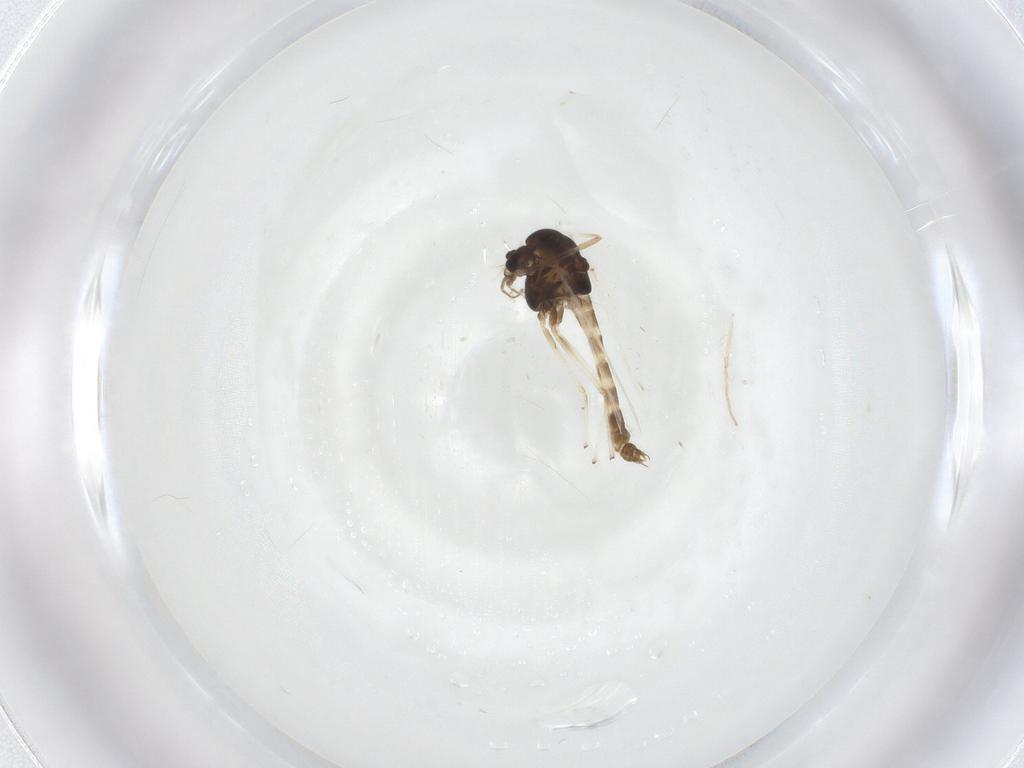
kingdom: Animalia
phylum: Arthropoda
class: Insecta
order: Diptera
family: Chironomidae
